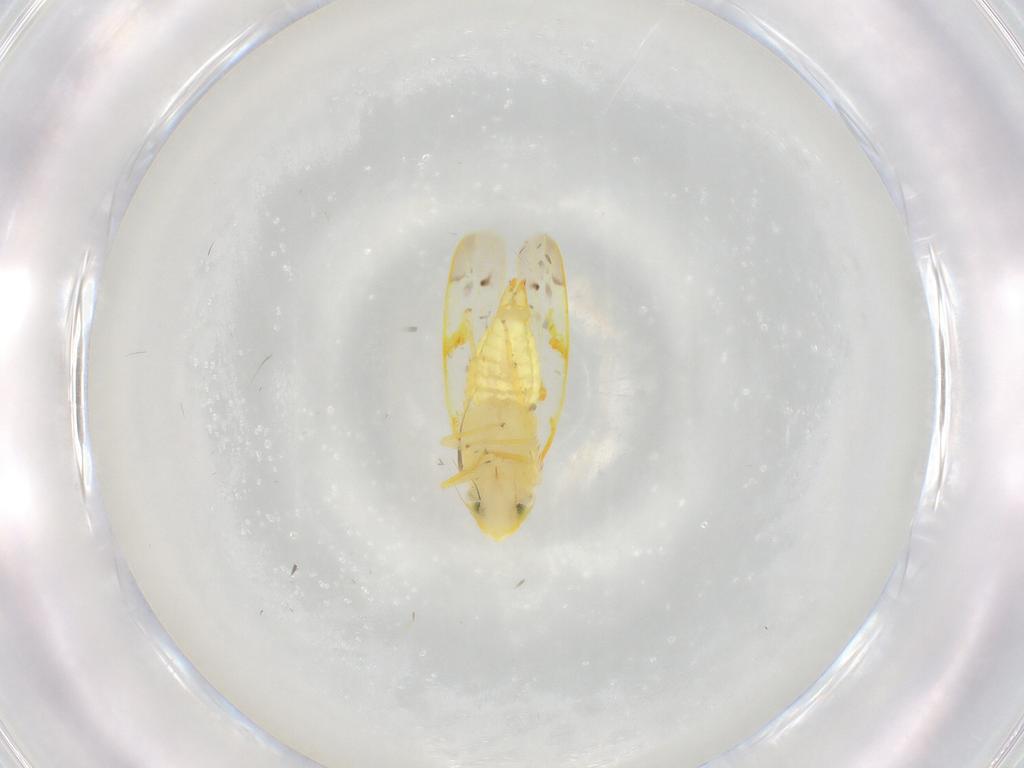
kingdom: Animalia
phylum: Arthropoda
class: Insecta
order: Hemiptera
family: Cicadellidae
